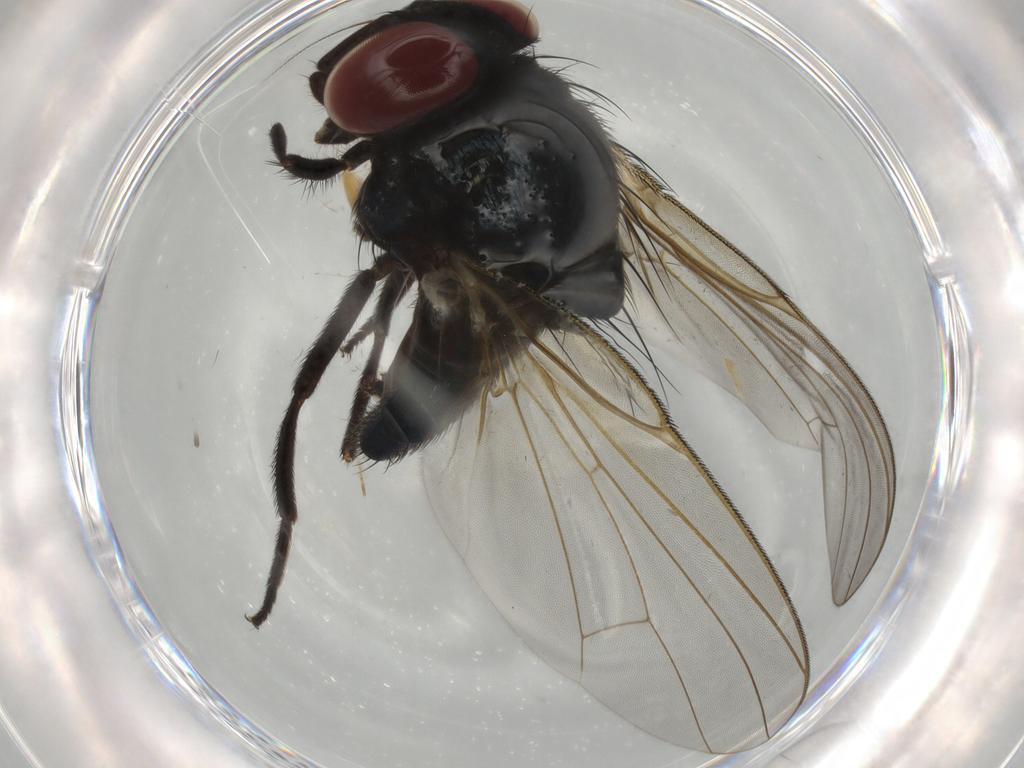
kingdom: Animalia
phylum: Arthropoda
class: Insecta
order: Diptera
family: Lonchaeidae
